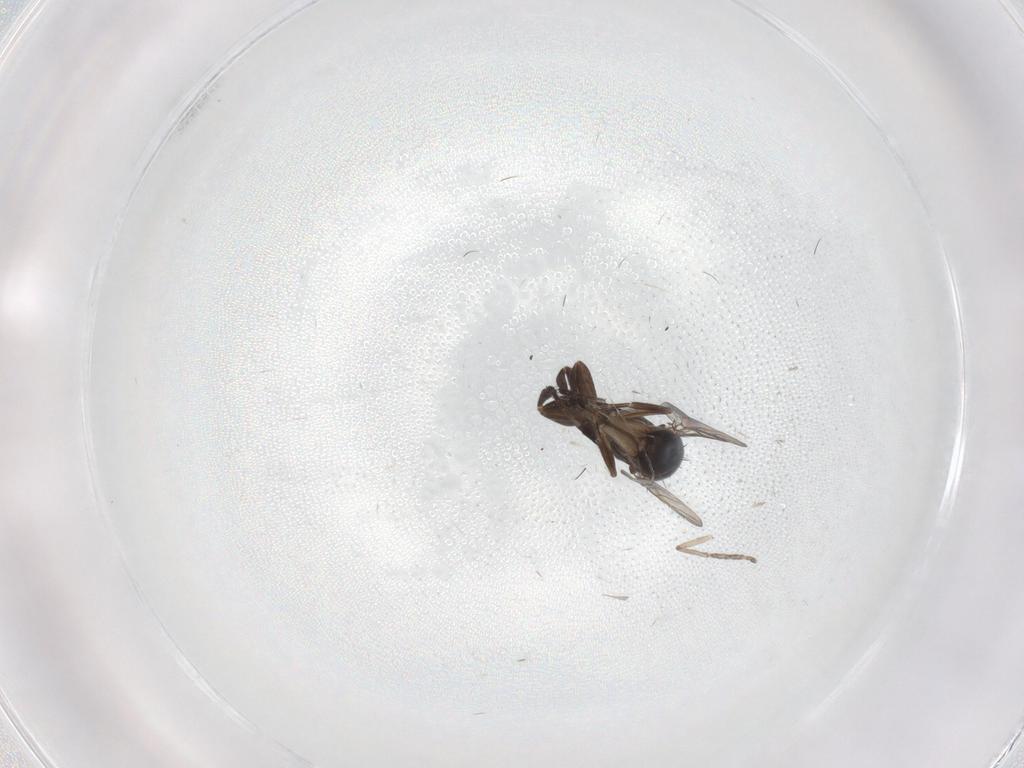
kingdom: Animalia
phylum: Arthropoda
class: Insecta
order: Diptera
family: Phoridae
